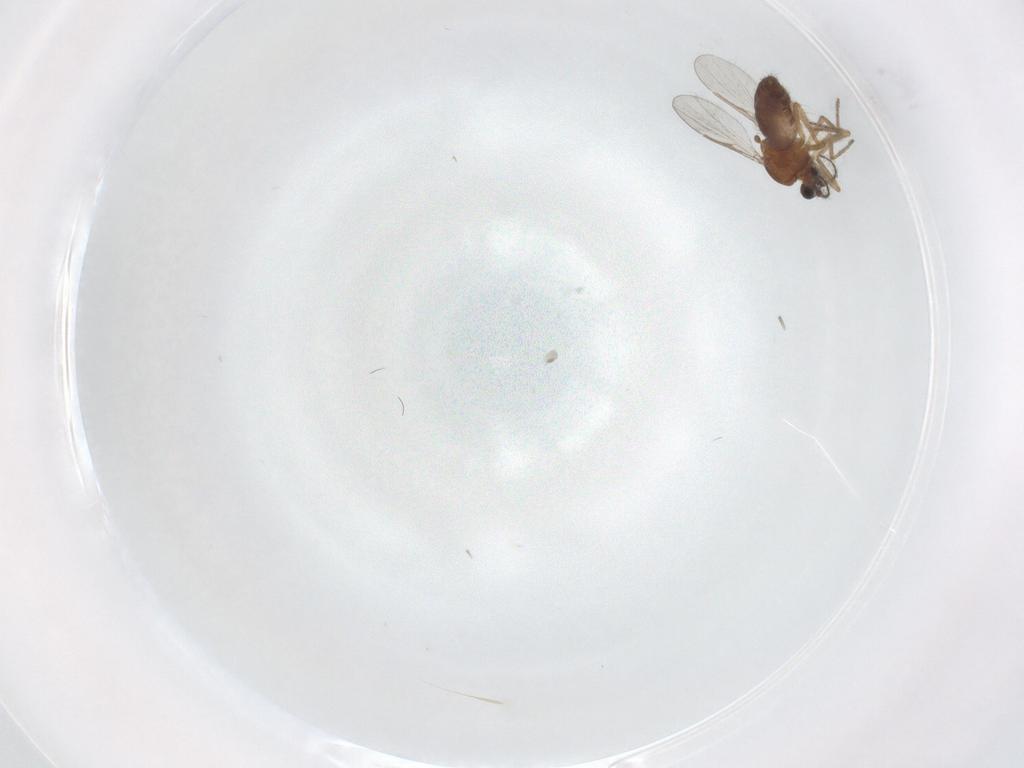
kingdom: Animalia
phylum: Arthropoda
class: Insecta
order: Diptera
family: Ceratopogonidae
